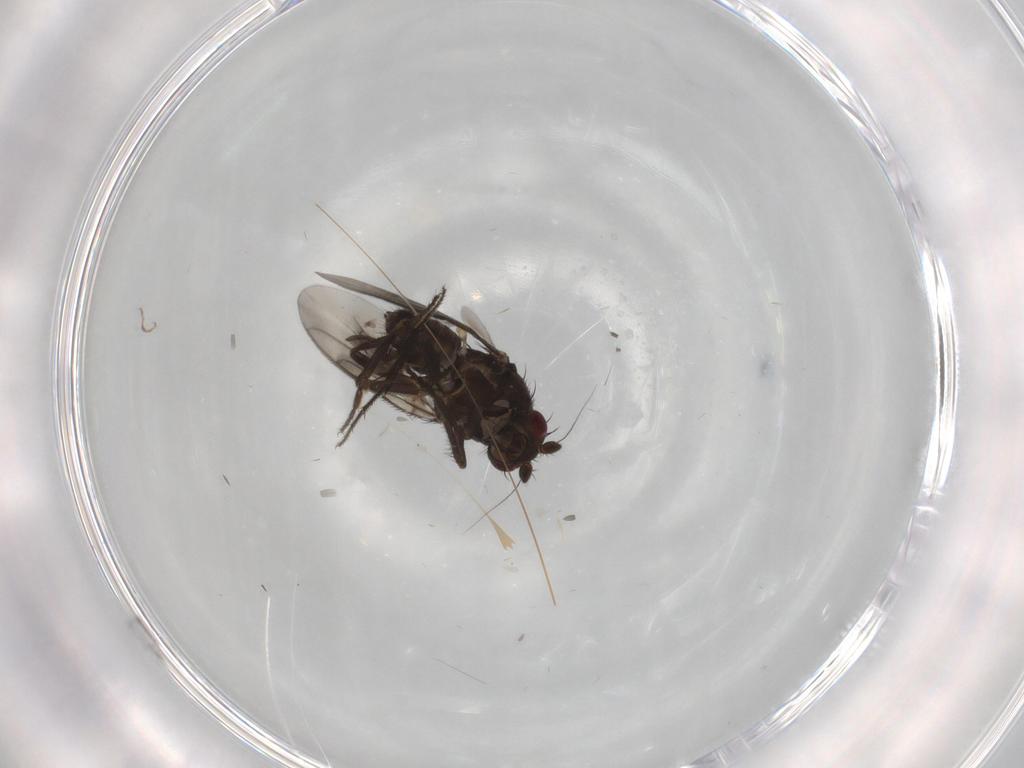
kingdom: Animalia
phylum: Arthropoda
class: Insecta
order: Diptera
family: Sphaeroceridae
